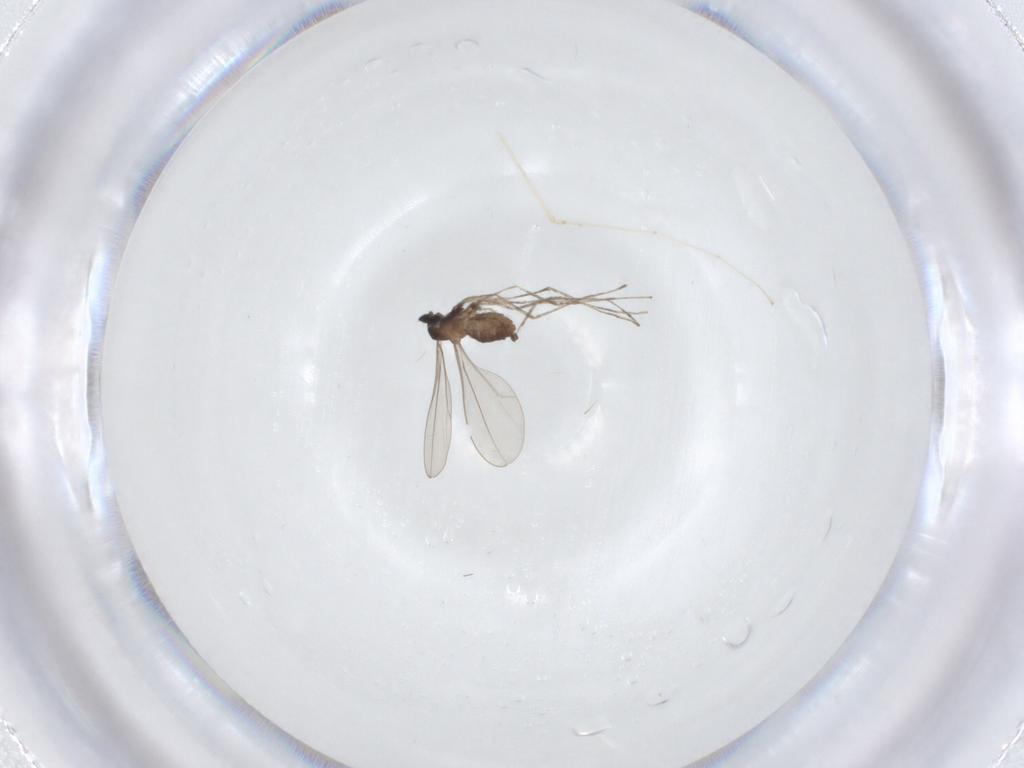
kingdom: Animalia
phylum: Arthropoda
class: Insecta
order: Diptera
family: Cecidomyiidae
